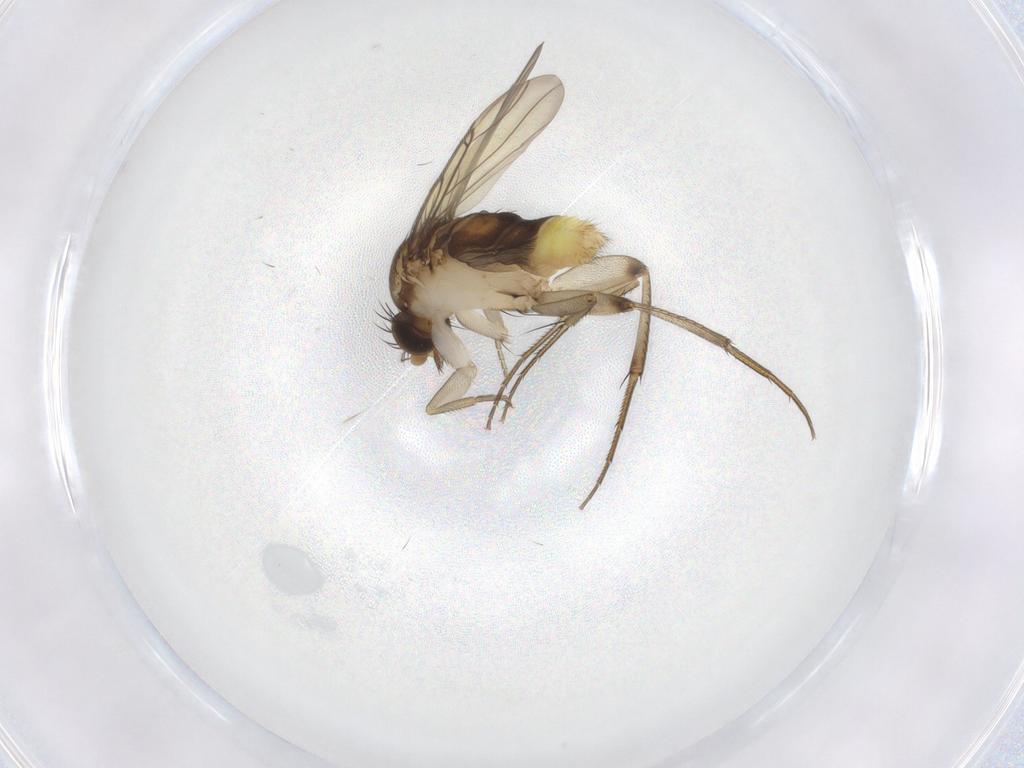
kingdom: Animalia
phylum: Arthropoda
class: Insecta
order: Diptera
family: Phoridae
